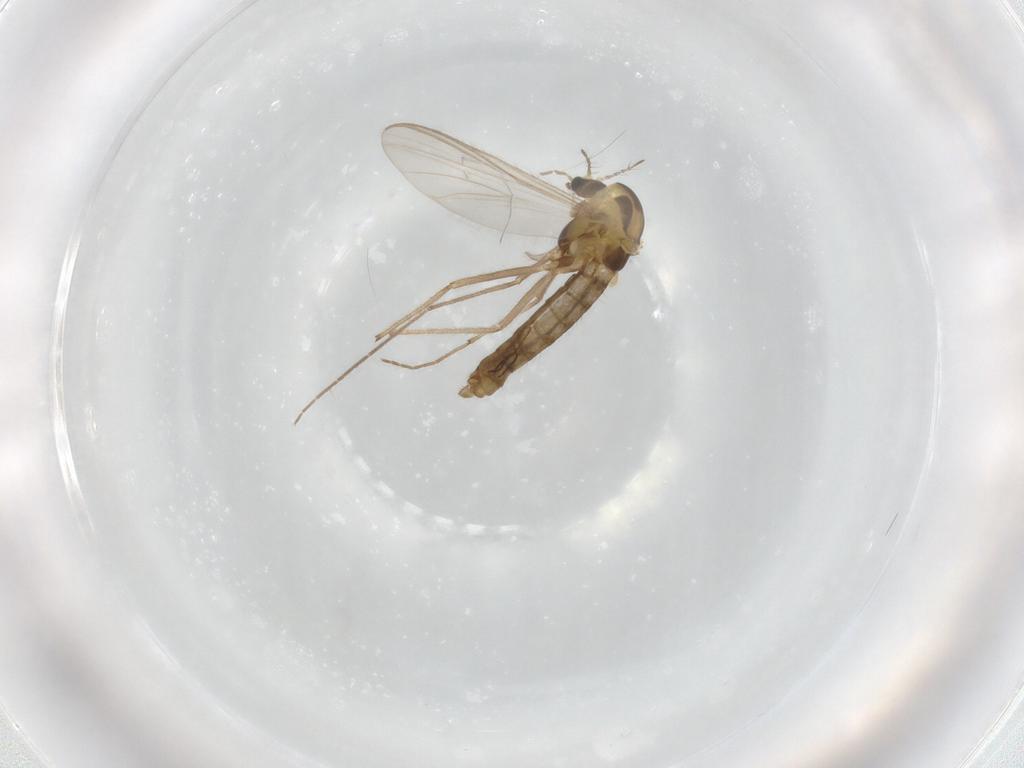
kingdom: Animalia
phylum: Arthropoda
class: Insecta
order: Diptera
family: Chironomidae
